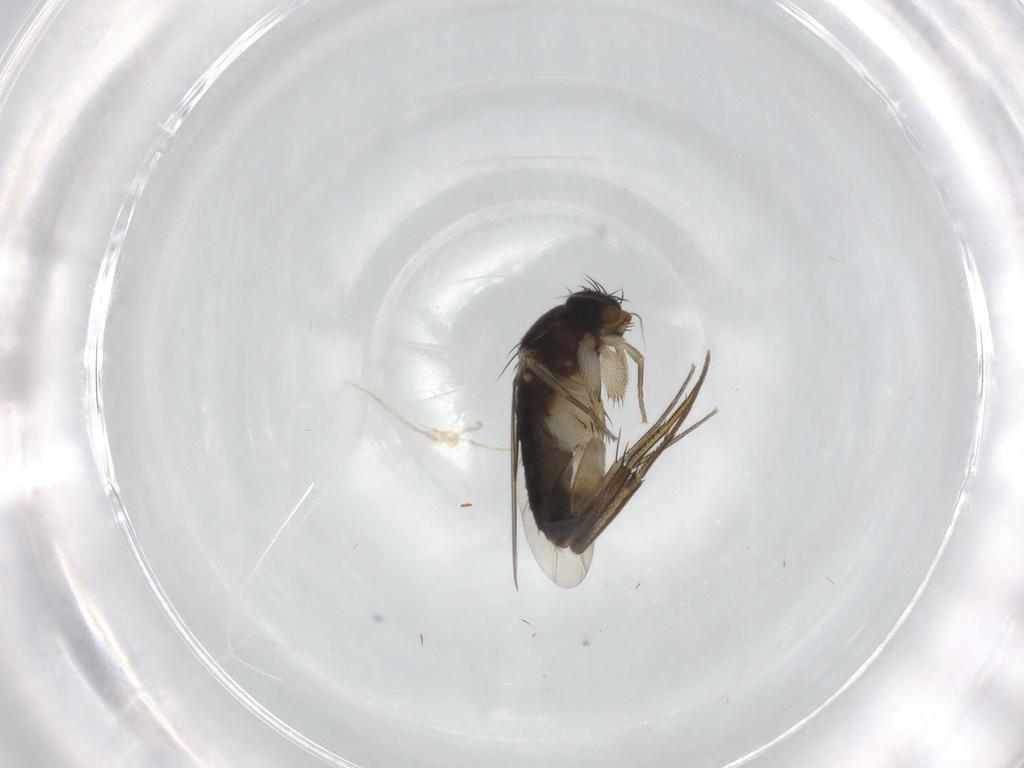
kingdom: Animalia
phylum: Arthropoda
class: Insecta
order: Diptera
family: Phoridae
